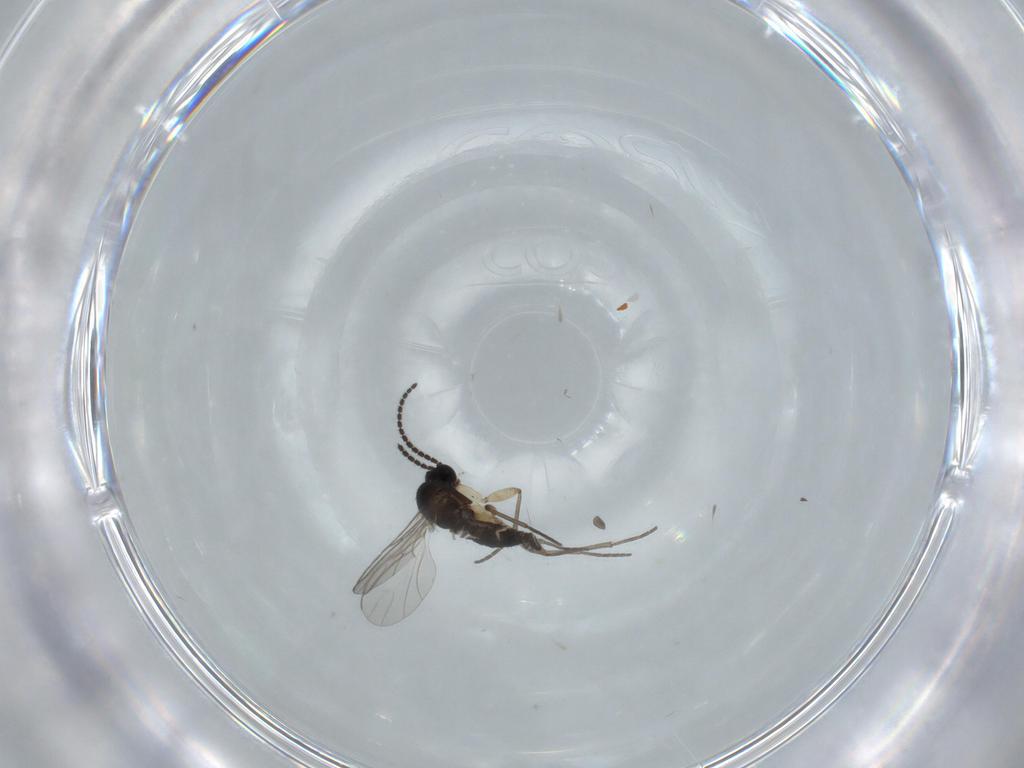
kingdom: Animalia
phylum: Arthropoda
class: Insecta
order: Diptera
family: Sciaridae
